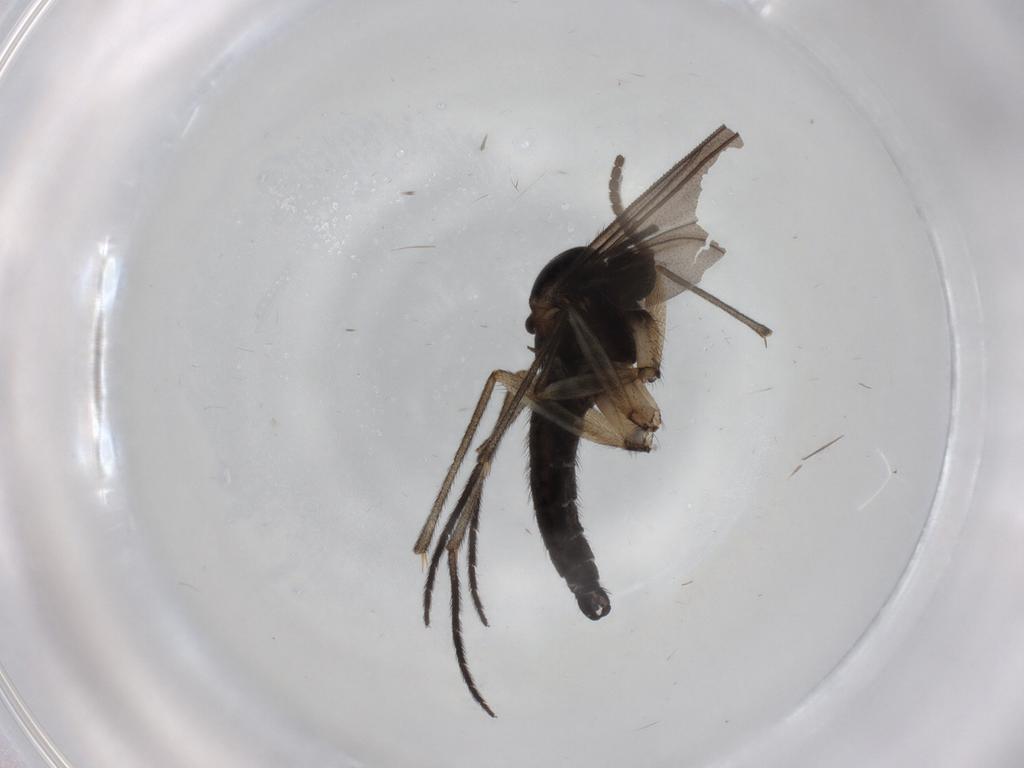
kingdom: Animalia
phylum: Arthropoda
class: Insecta
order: Diptera
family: Sciaridae
